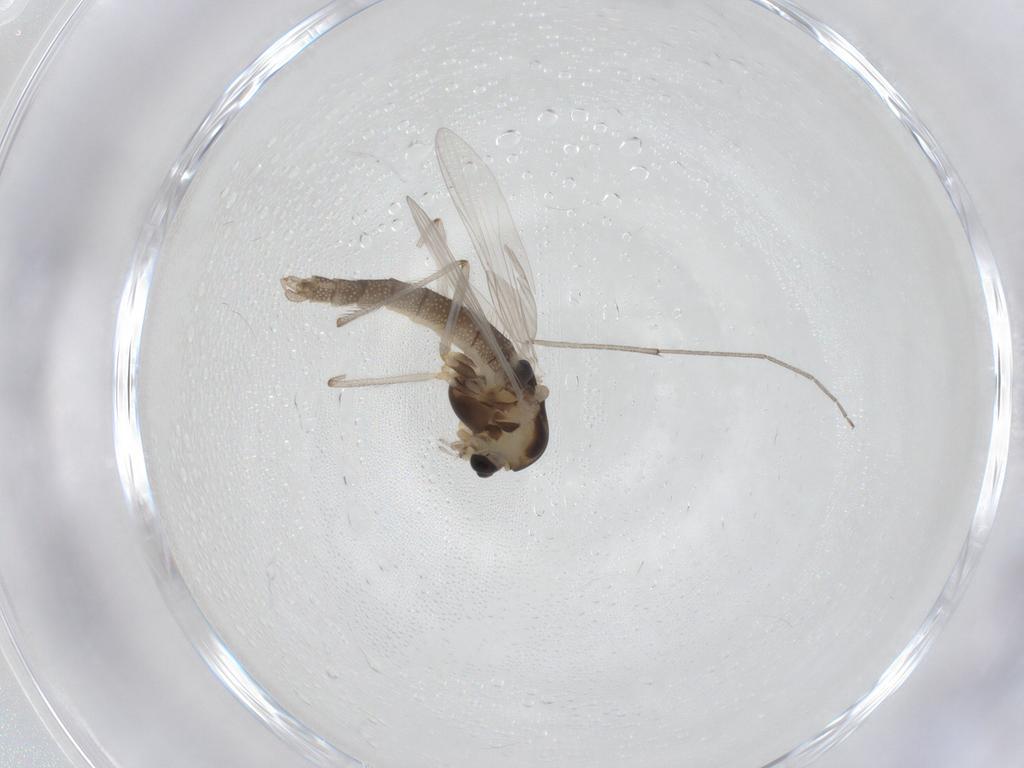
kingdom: Animalia
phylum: Arthropoda
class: Insecta
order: Diptera
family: Chironomidae
